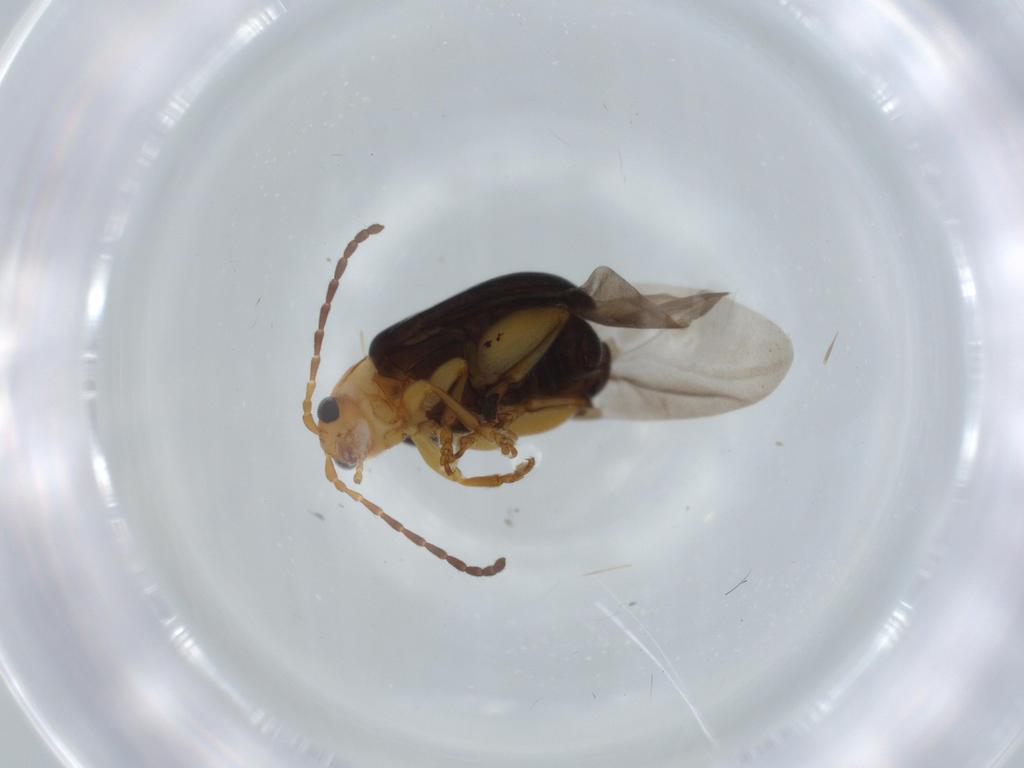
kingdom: Animalia
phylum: Arthropoda
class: Insecta
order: Coleoptera
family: Chrysomelidae
